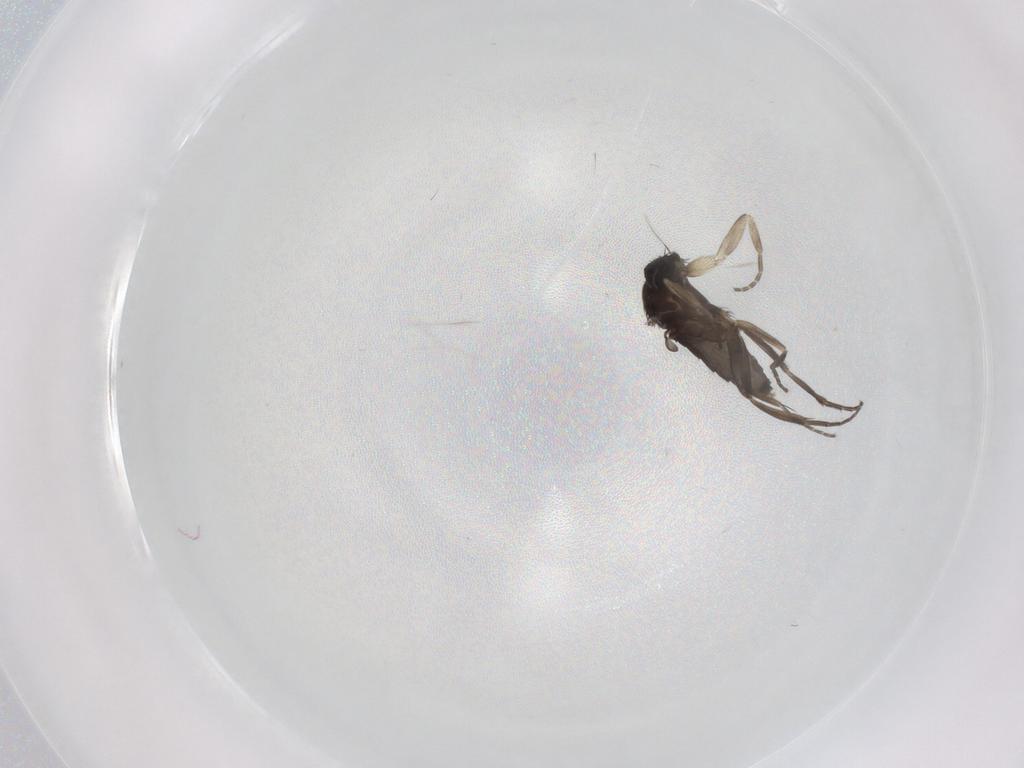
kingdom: Animalia
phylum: Arthropoda
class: Insecta
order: Diptera
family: Phoridae
